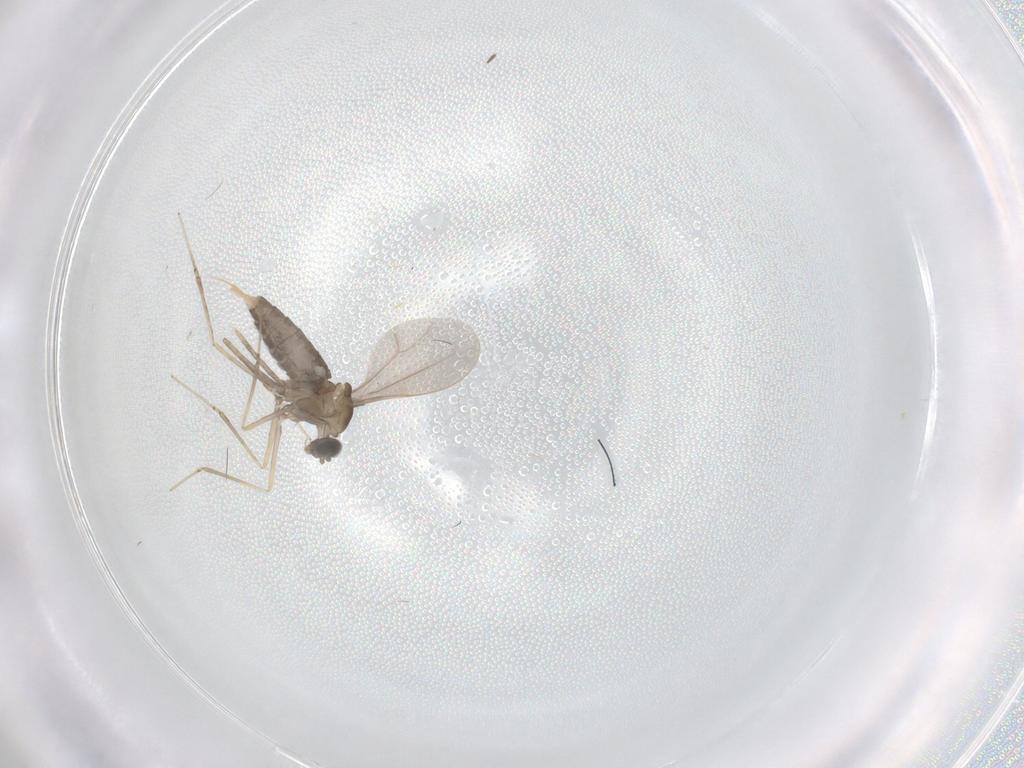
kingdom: Animalia
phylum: Arthropoda
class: Insecta
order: Diptera
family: Cecidomyiidae
